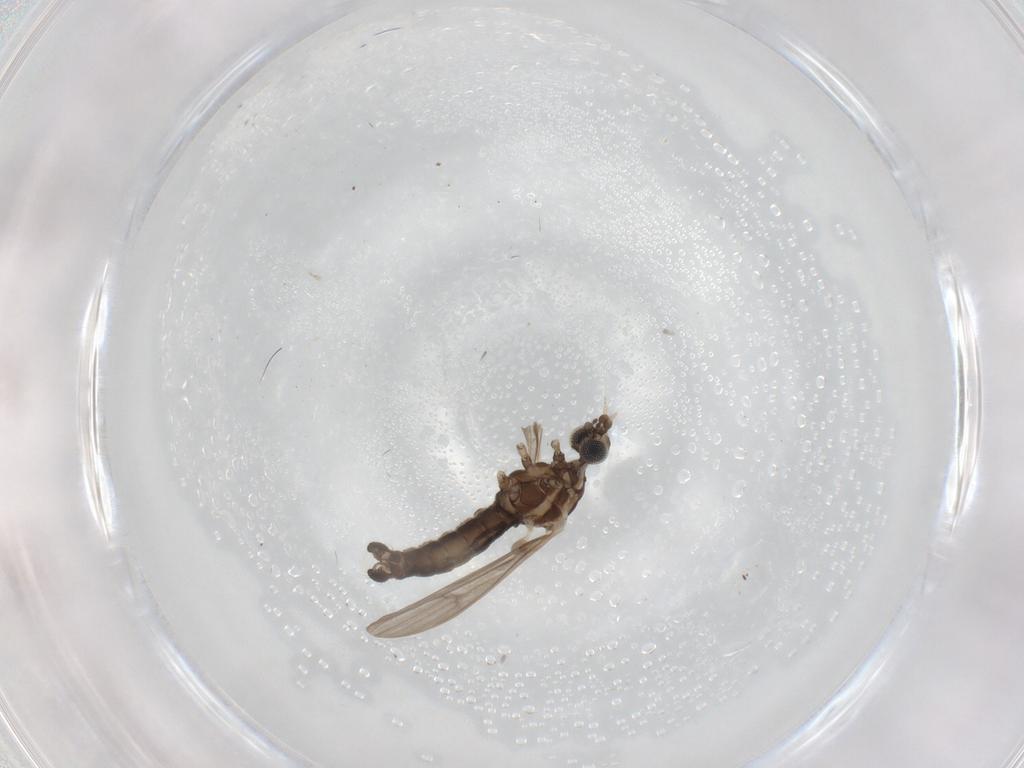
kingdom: Animalia
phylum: Arthropoda
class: Insecta
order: Diptera
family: Limoniidae
